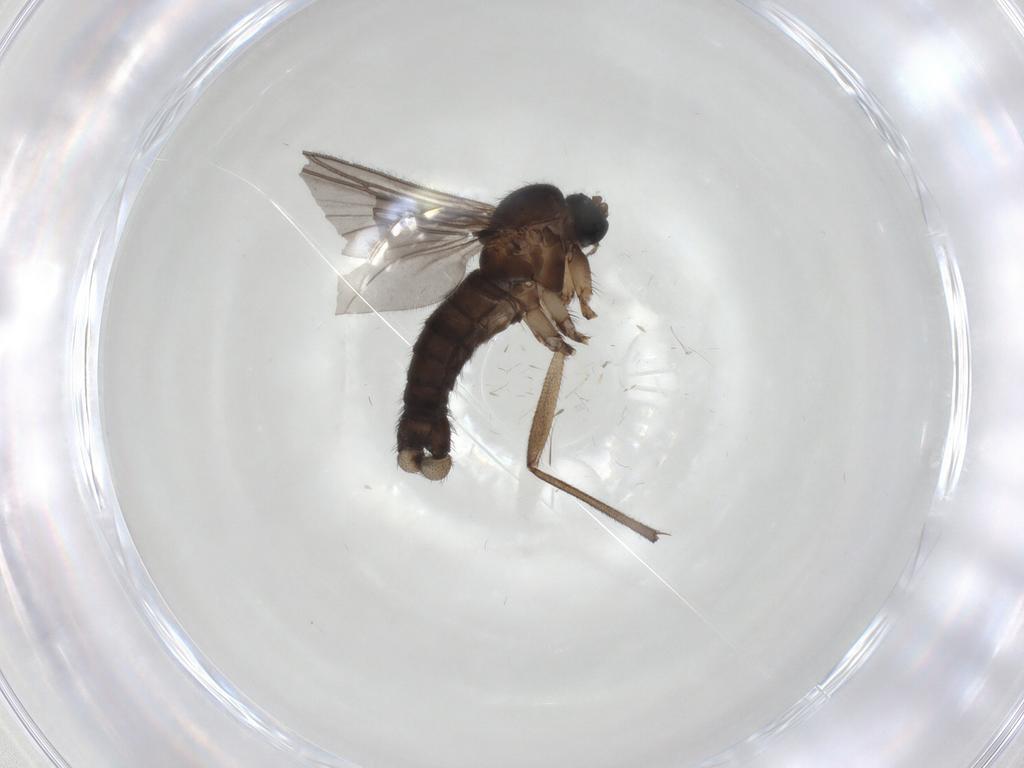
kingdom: Animalia
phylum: Arthropoda
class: Insecta
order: Diptera
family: Sciaridae
